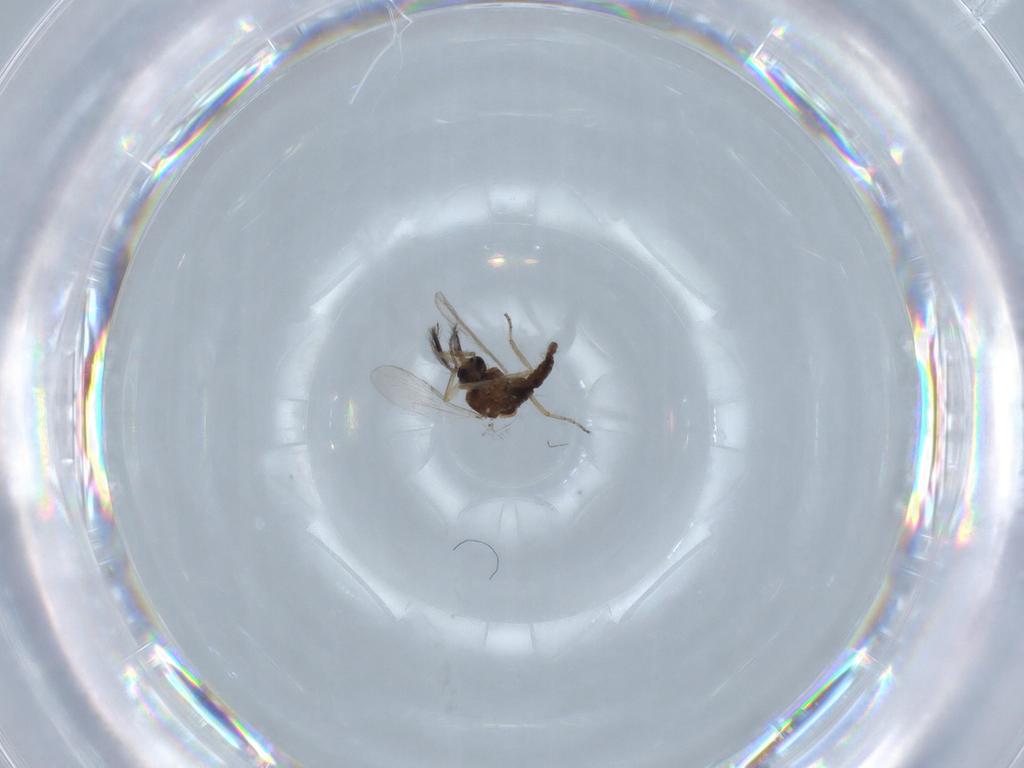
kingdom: Animalia
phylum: Arthropoda
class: Insecta
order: Diptera
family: Ceratopogonidae
